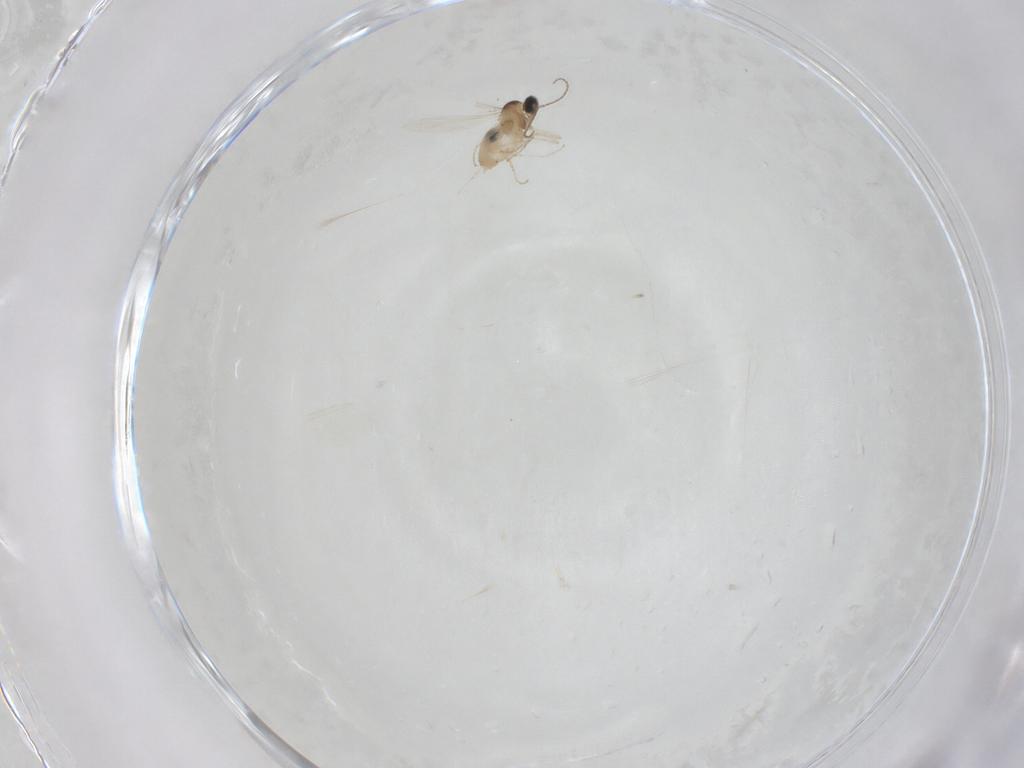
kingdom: Animalia
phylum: Arthropoda
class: Insecta
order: Diptera
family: Cecidomyiidae
